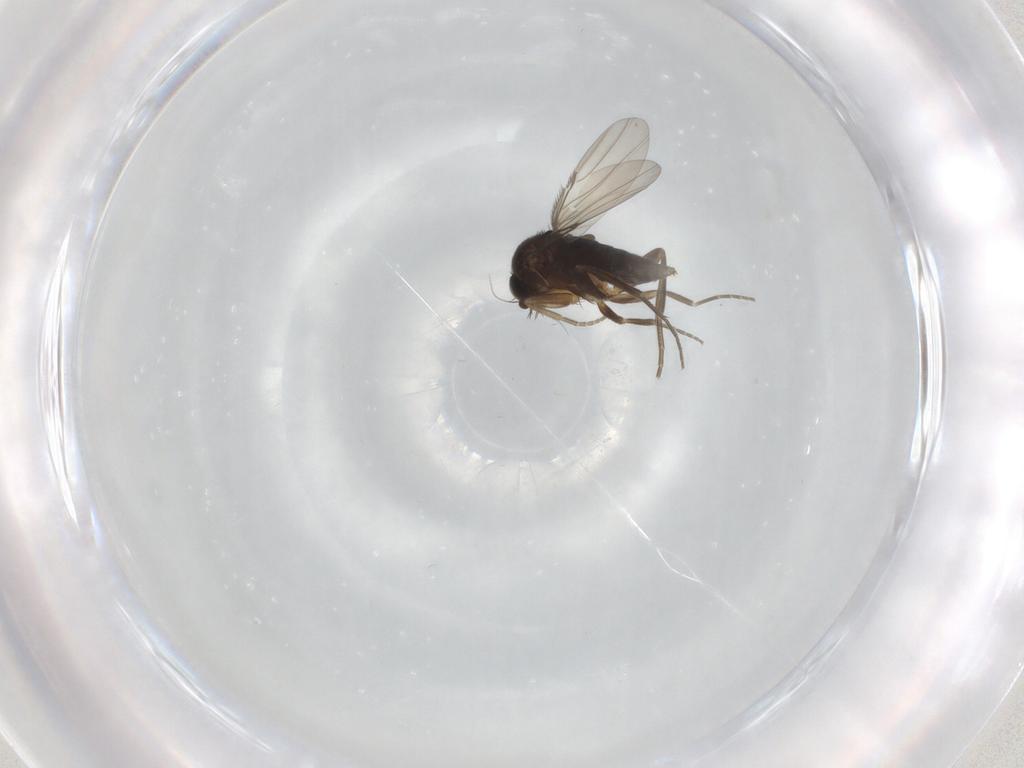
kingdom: Animalia
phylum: Arthropoda
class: Insecta
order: Diptera
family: Phoridae
